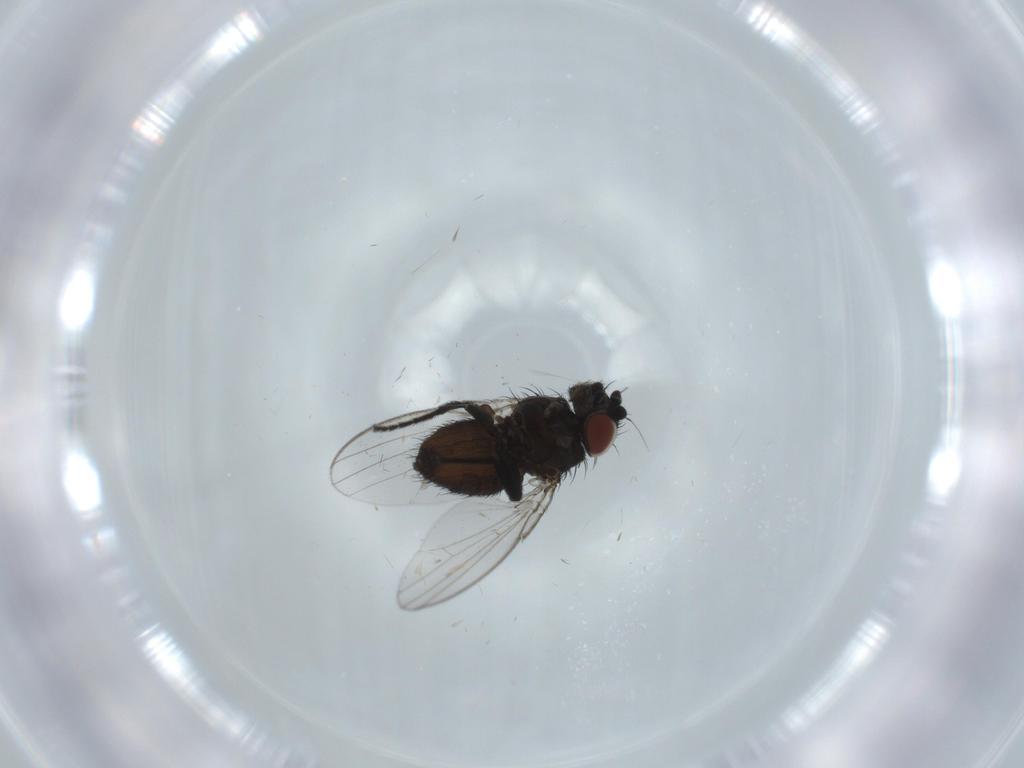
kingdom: Animalia
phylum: Arthropoda
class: Insecta
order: Diptera
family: Milichiidae
